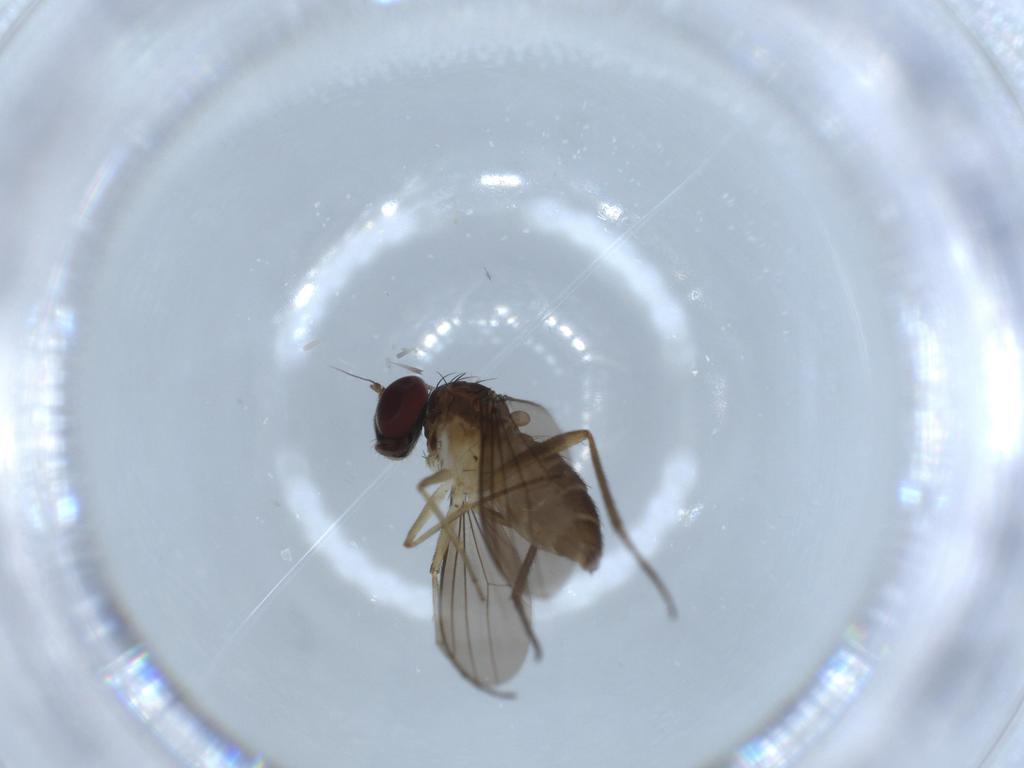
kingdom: Animalia
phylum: Arthropoda
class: Insecta
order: Diptera
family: Dolichopodidae
